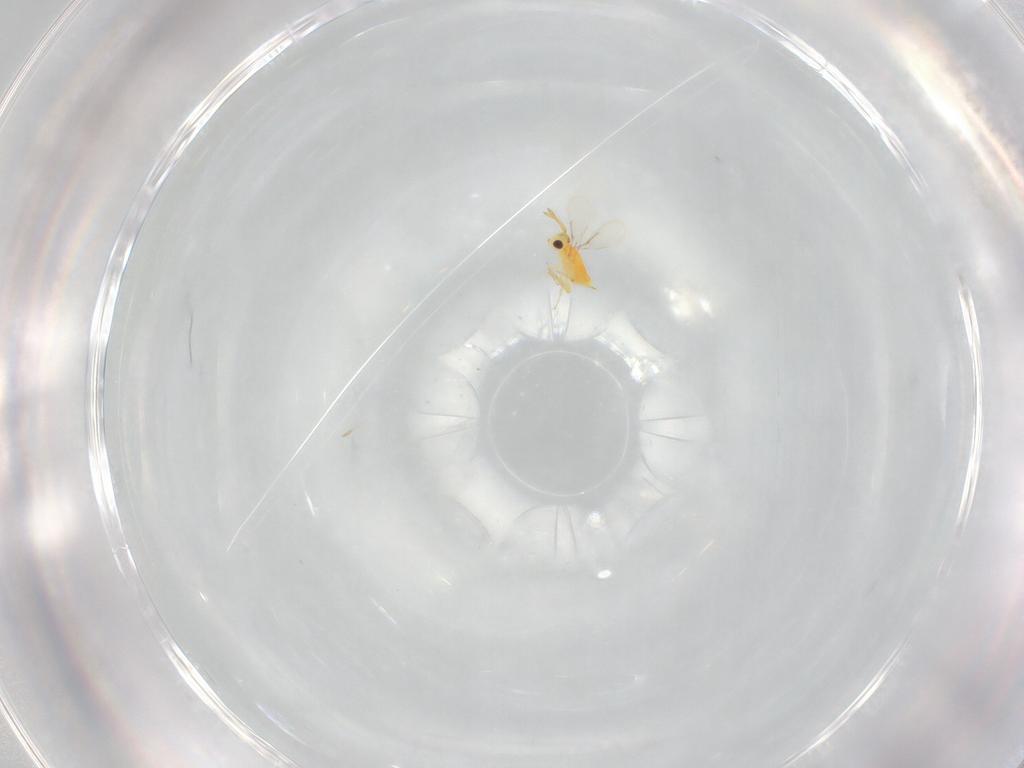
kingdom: Animalia
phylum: Arthropoda
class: Insecta
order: Hymenoptera
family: Aphelinidae
